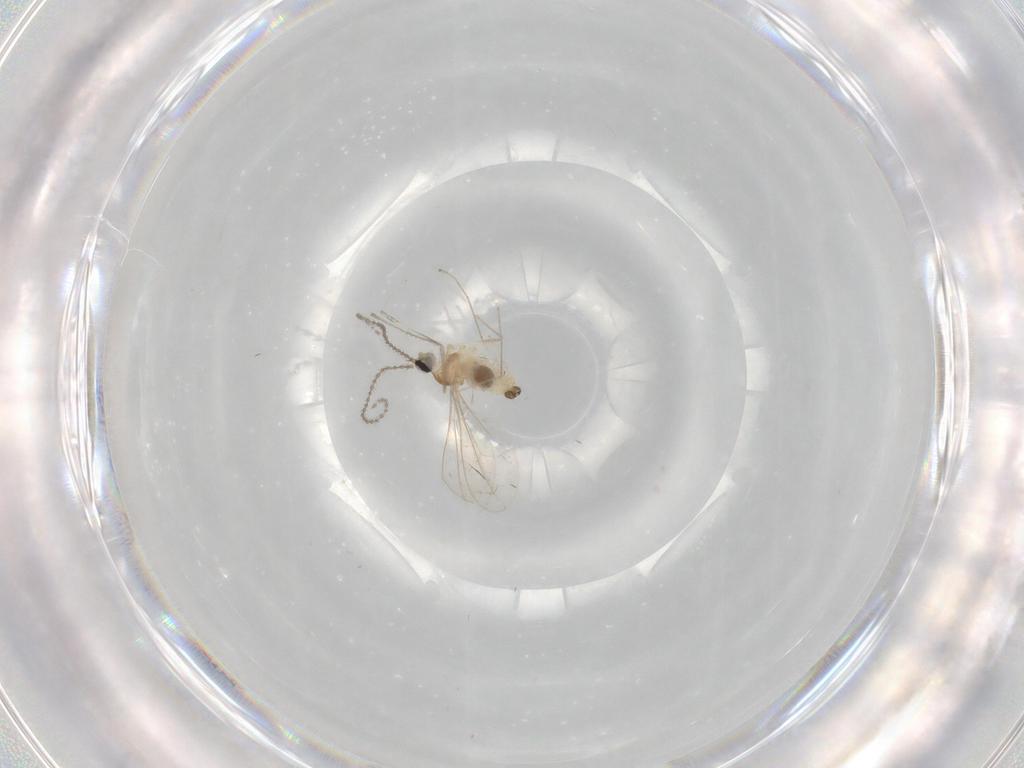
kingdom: Animalia
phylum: Arthropoda
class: Insecta
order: Diptera
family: Cecidomyiidae
